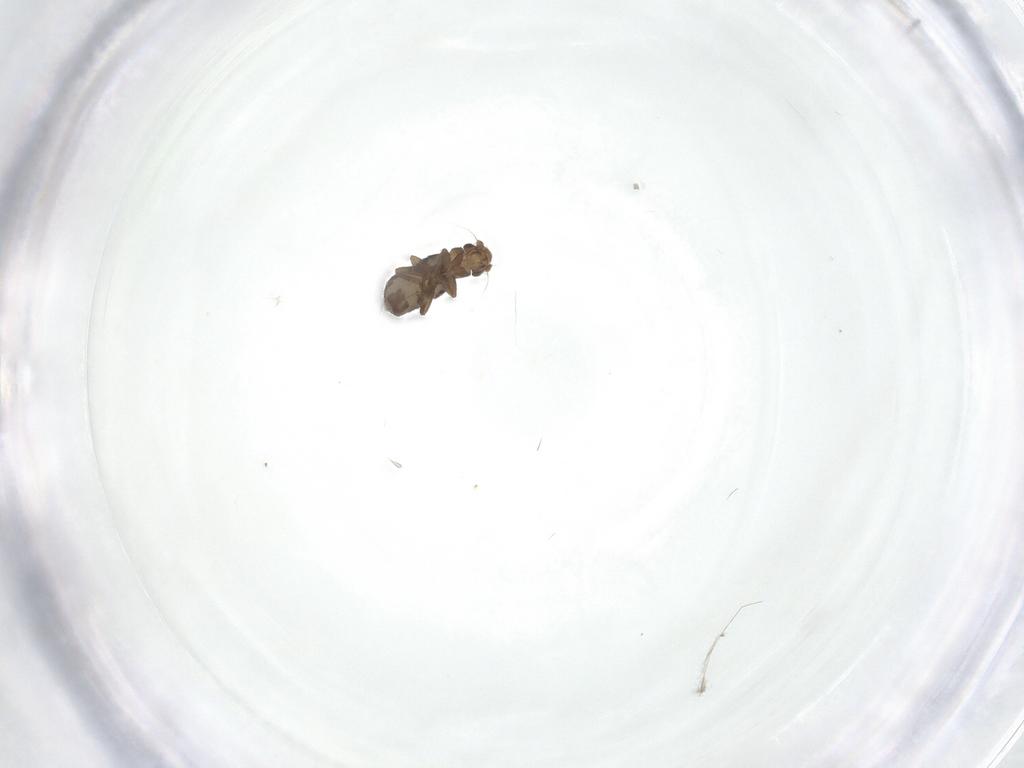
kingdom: Animalia
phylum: Arthropoda
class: Insecta
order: Diptera
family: Phoridae
